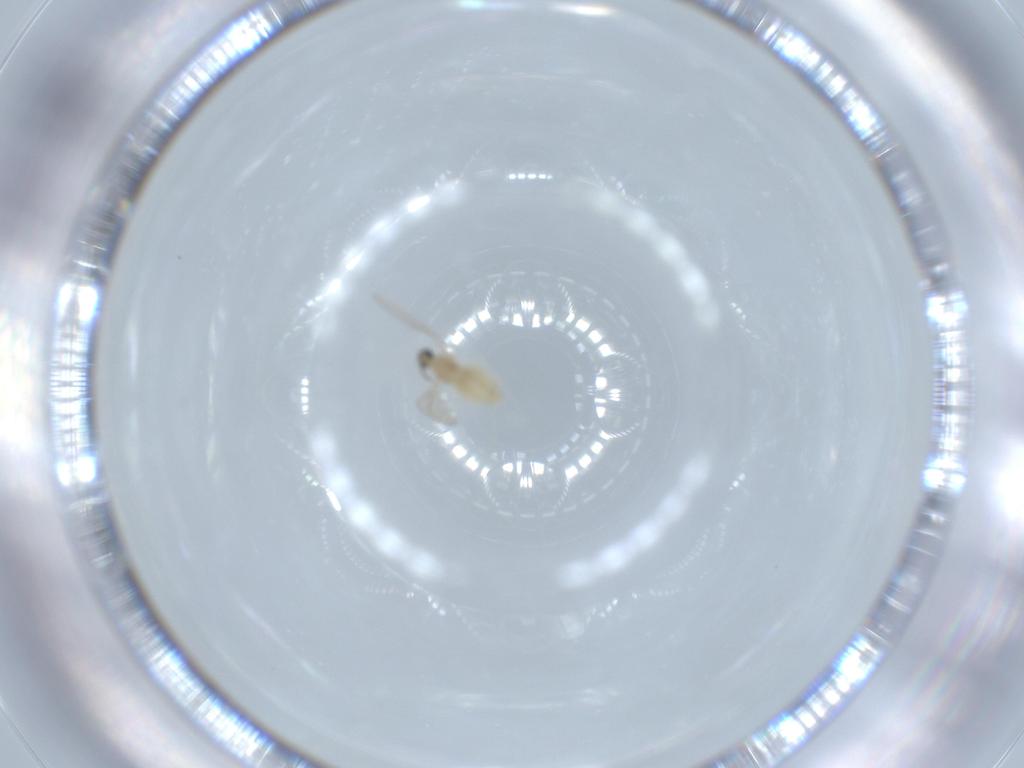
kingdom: Animalia
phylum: Arthropoda
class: Insecta
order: Diptera
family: Cecidomyiidae
